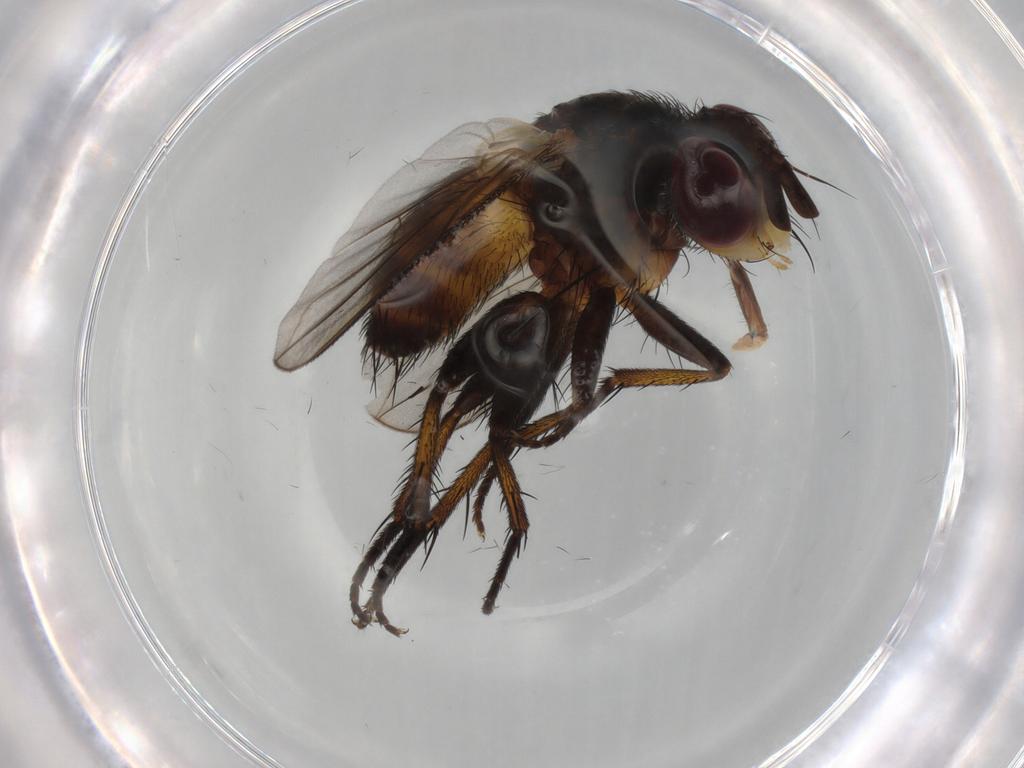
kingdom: Animalia
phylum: Arthropoda
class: Insecta
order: Diptera
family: Tachinidae
